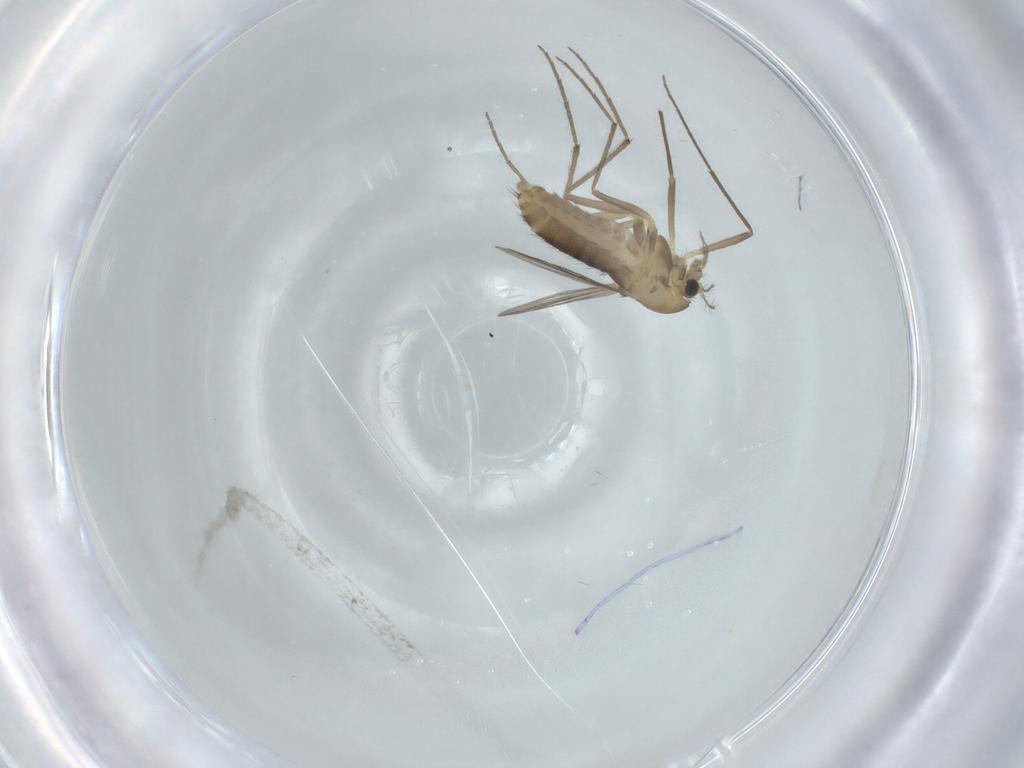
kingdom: Animalia
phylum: Arthropoda
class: Insecta
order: Diptera
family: Chironomidae
